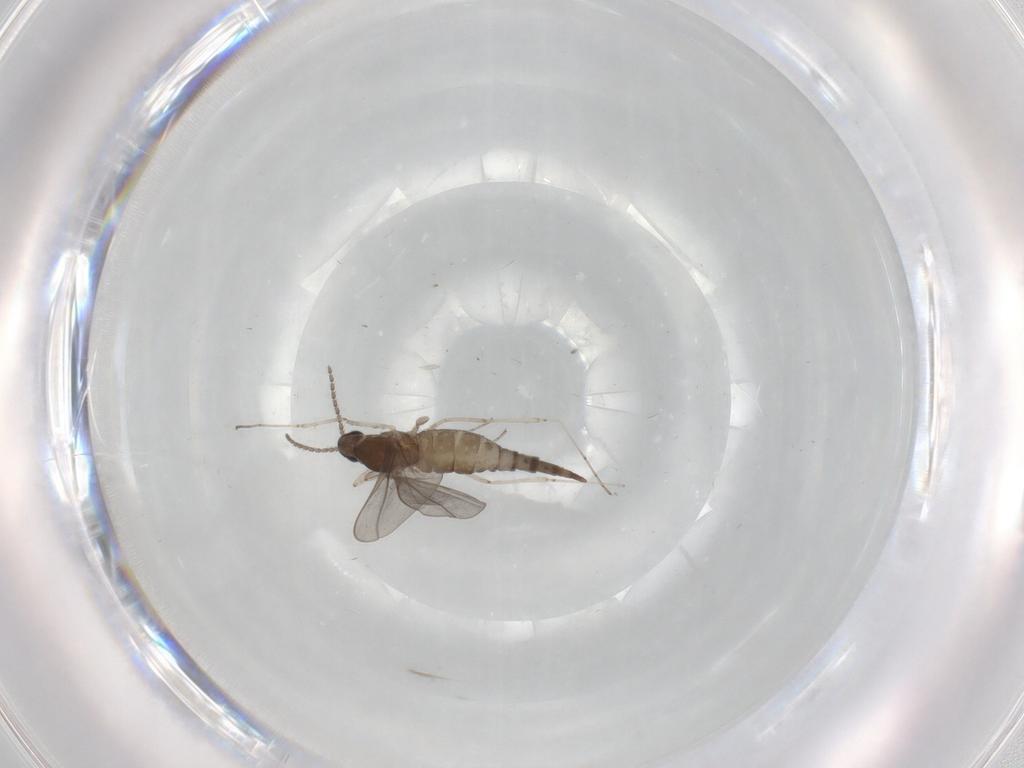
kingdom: Animalia
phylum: Arthropoda
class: Insecta
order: Diptera
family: Cecidomyiidae
